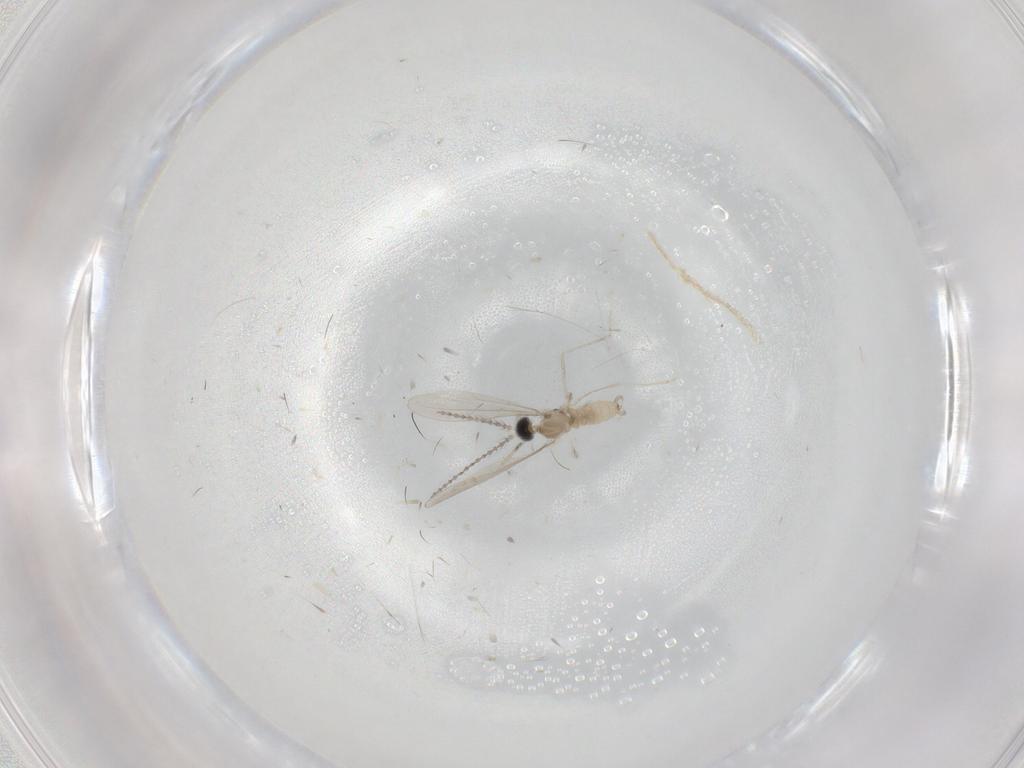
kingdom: Animalia
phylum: Arthropoda
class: Insecta
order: Diptera
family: Cecidomyiidae
